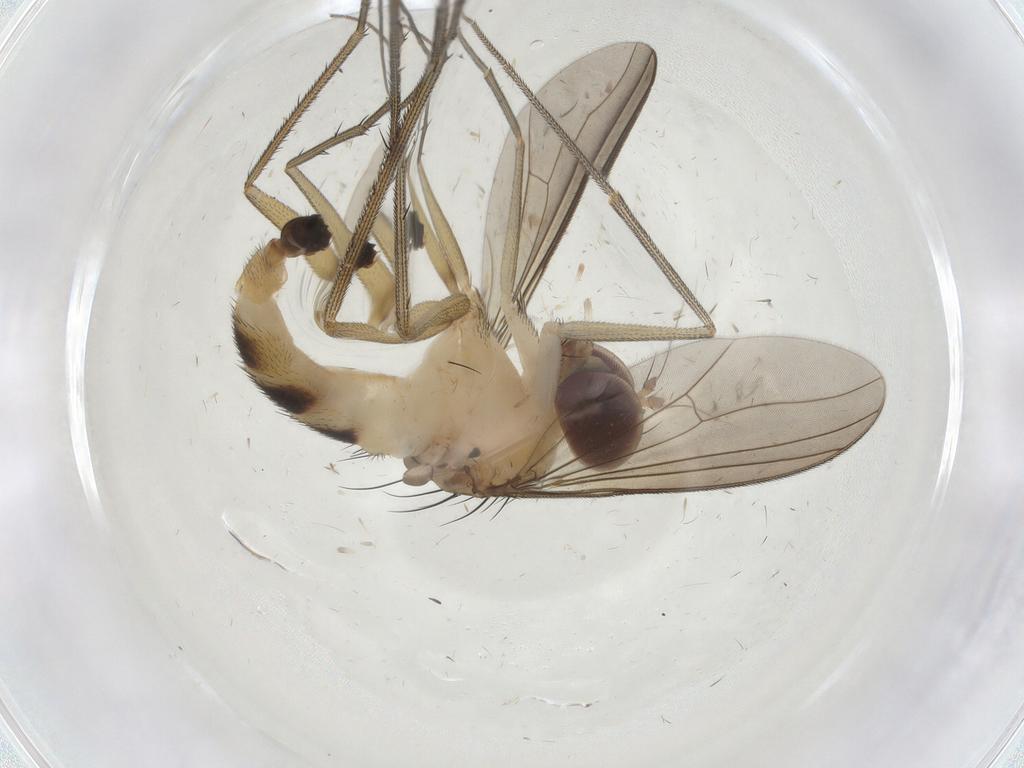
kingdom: Animalia
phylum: Arthropoda
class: Insecta
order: Diptera
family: Dolichopodidae
